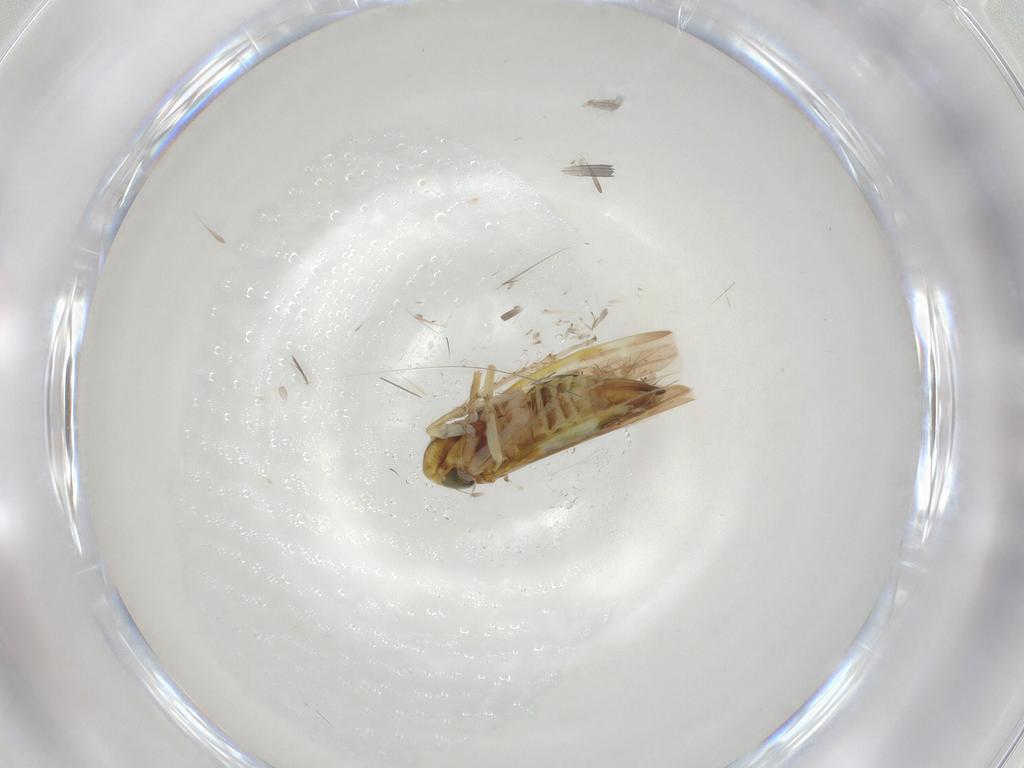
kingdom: Animalia
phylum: Arthropoda
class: Insecta
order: Hemiptera
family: Cicadellidae
